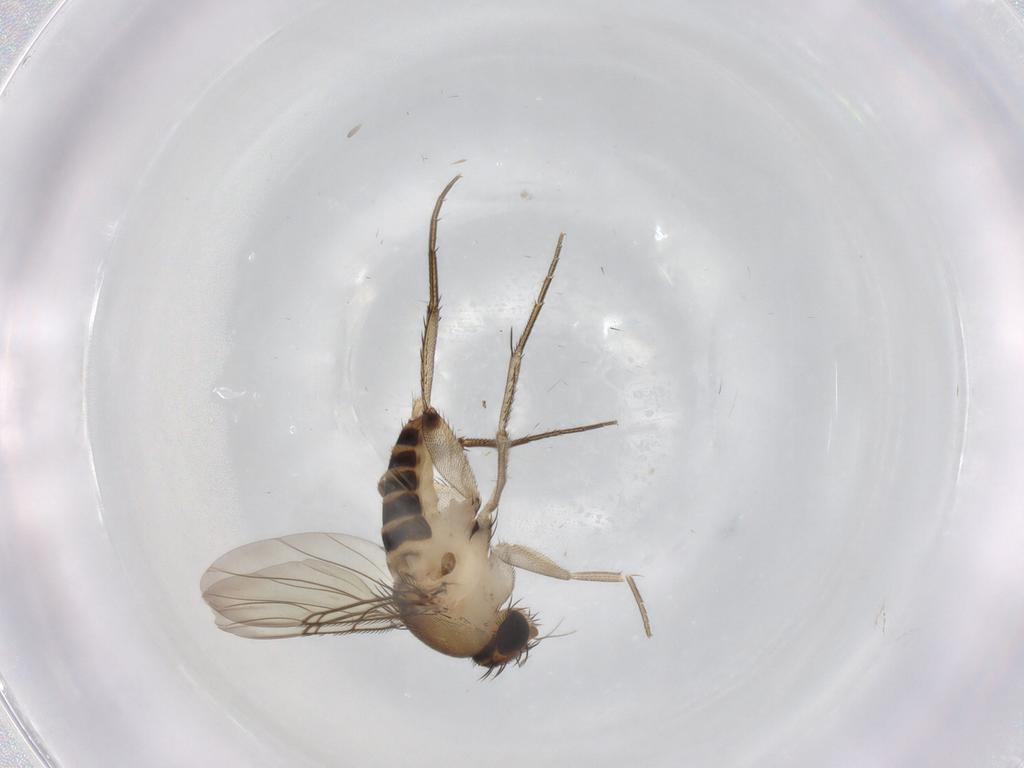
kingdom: Animalia
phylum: Arthropoda
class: Insecta
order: Diptera
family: Phoridae
